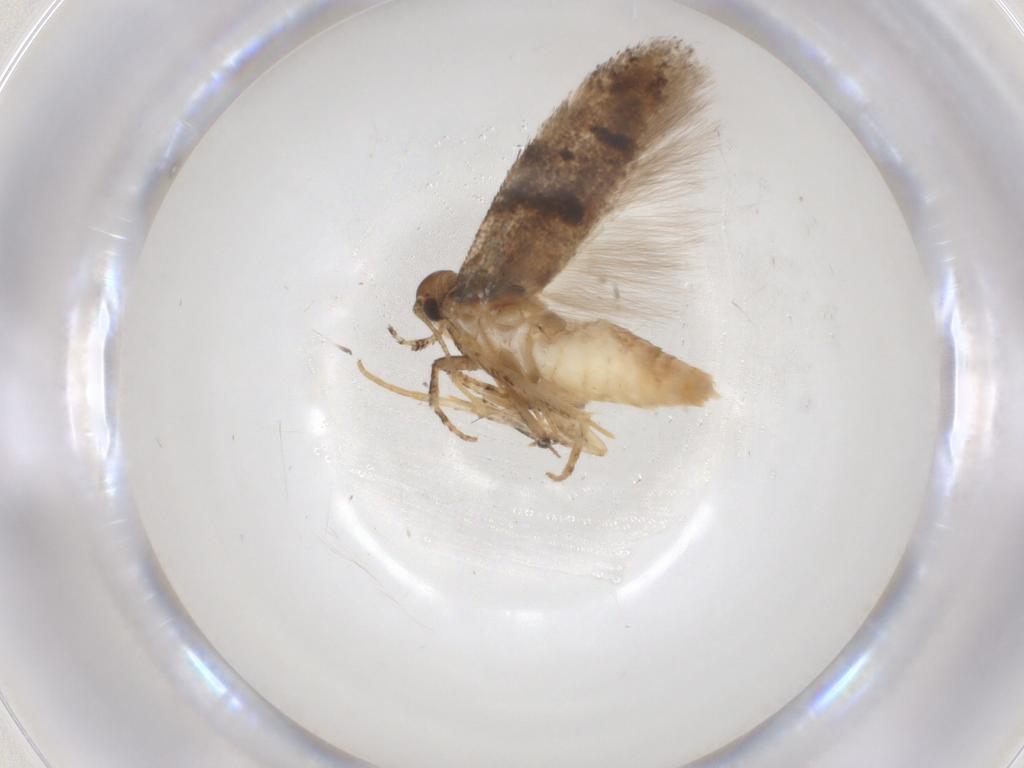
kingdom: Animalia
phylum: Arthropoda
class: Insecta
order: Lepidoptera
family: Gelechiidae
